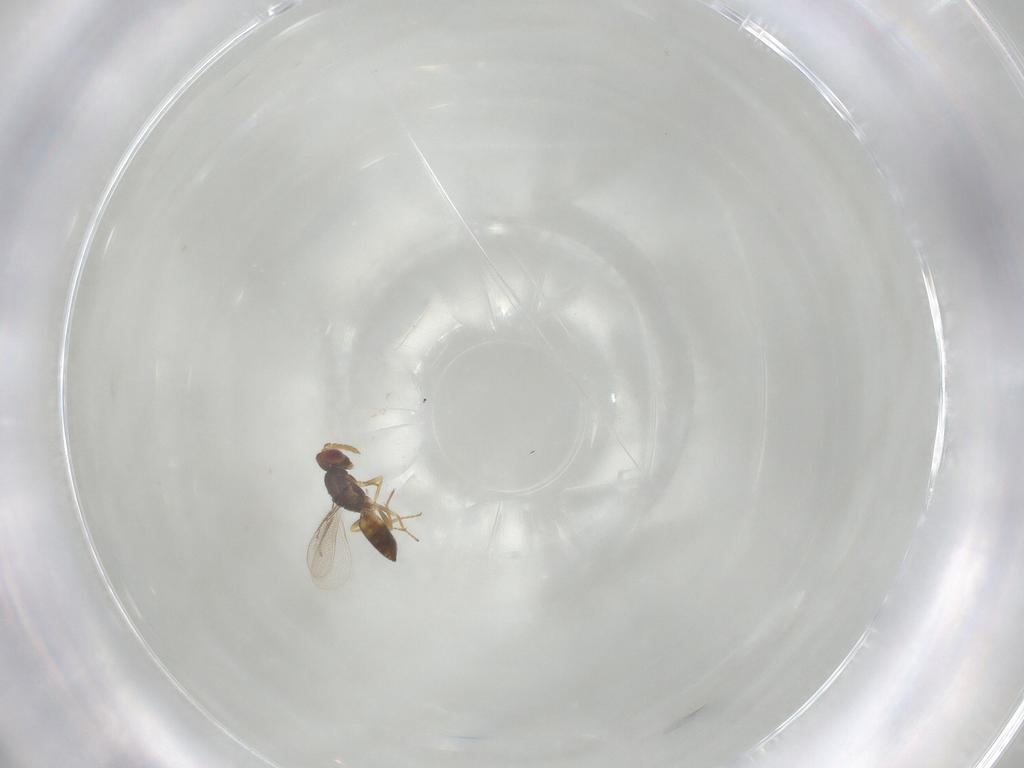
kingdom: Animalia
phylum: Arthropoda
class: Insecta
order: Hymenoptera
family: Eulophidae
